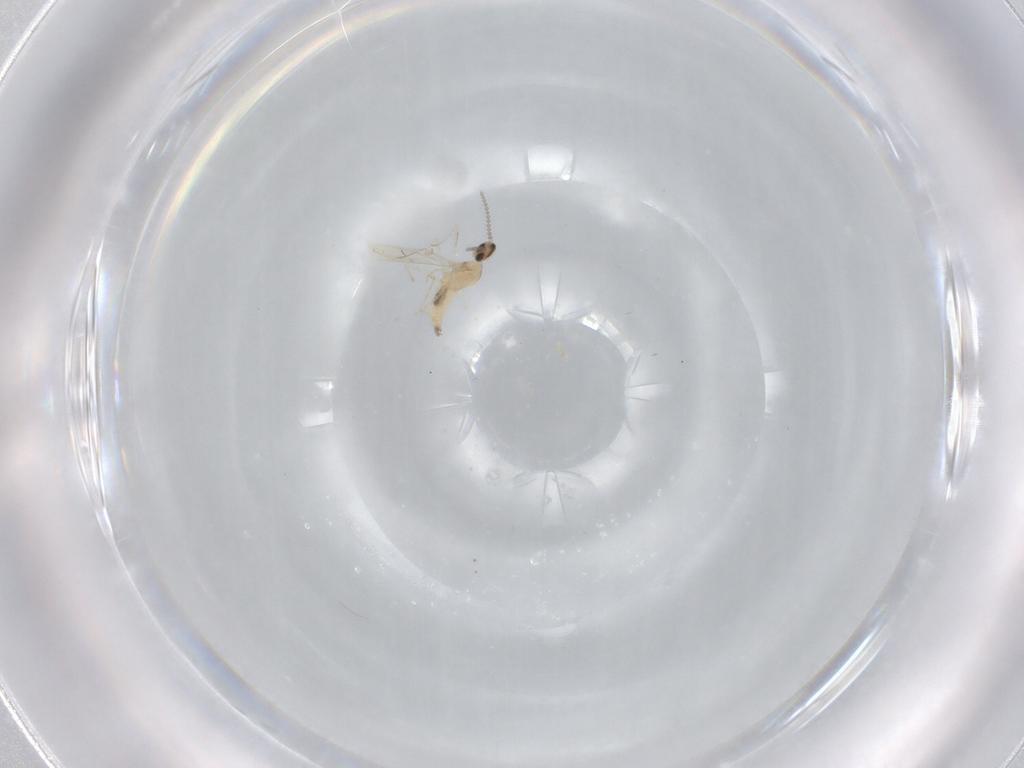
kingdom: Animalia
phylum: Arthropoda
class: Insecta
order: Diptera
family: Cecidomyiidae
